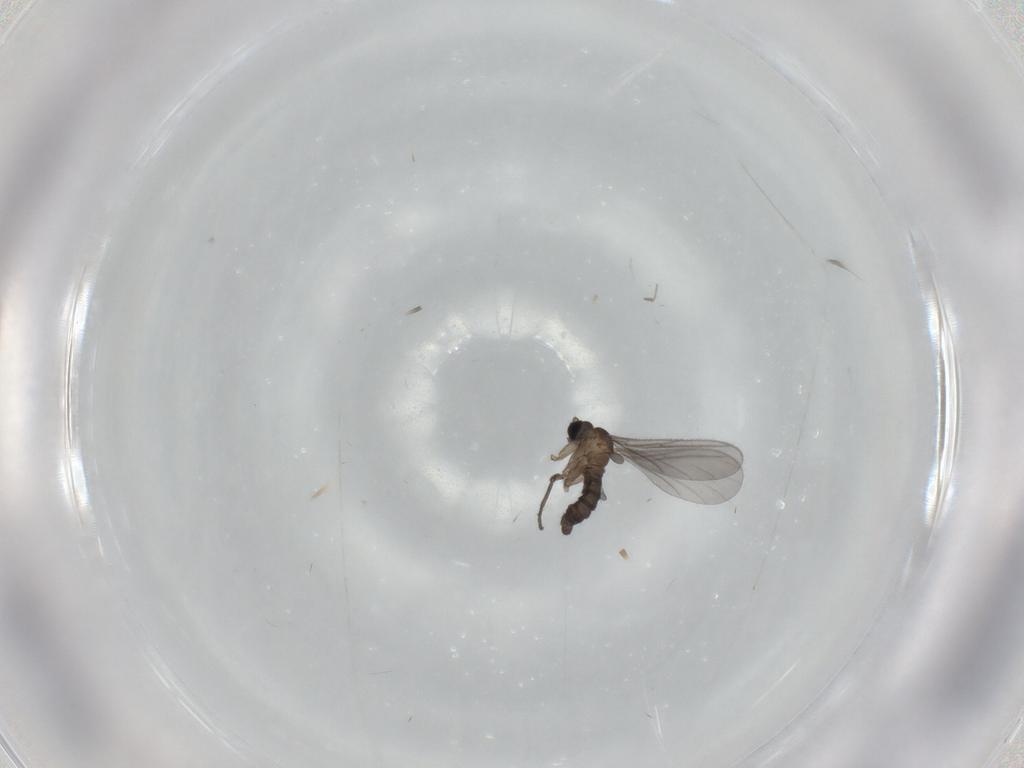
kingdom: Animalia
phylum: Arthropoda
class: Insecta
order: Diptera
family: Sciaridae
